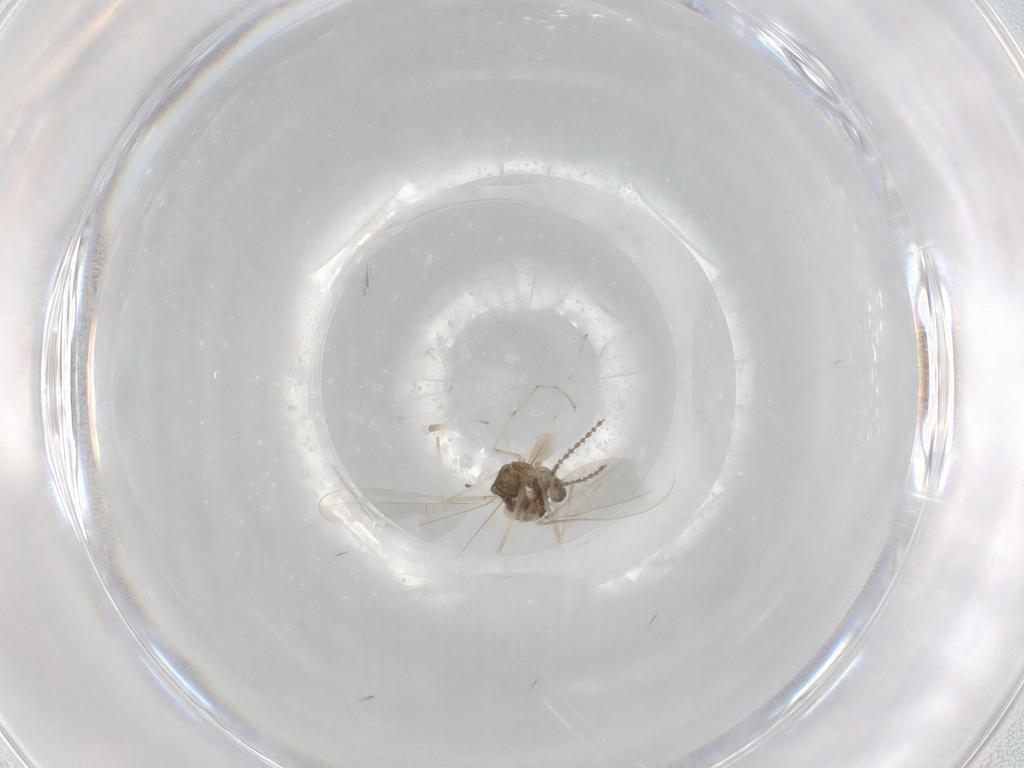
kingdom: Animalia
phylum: Arthropoda
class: Insecta
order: Diptera
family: Cecidomyiidae
